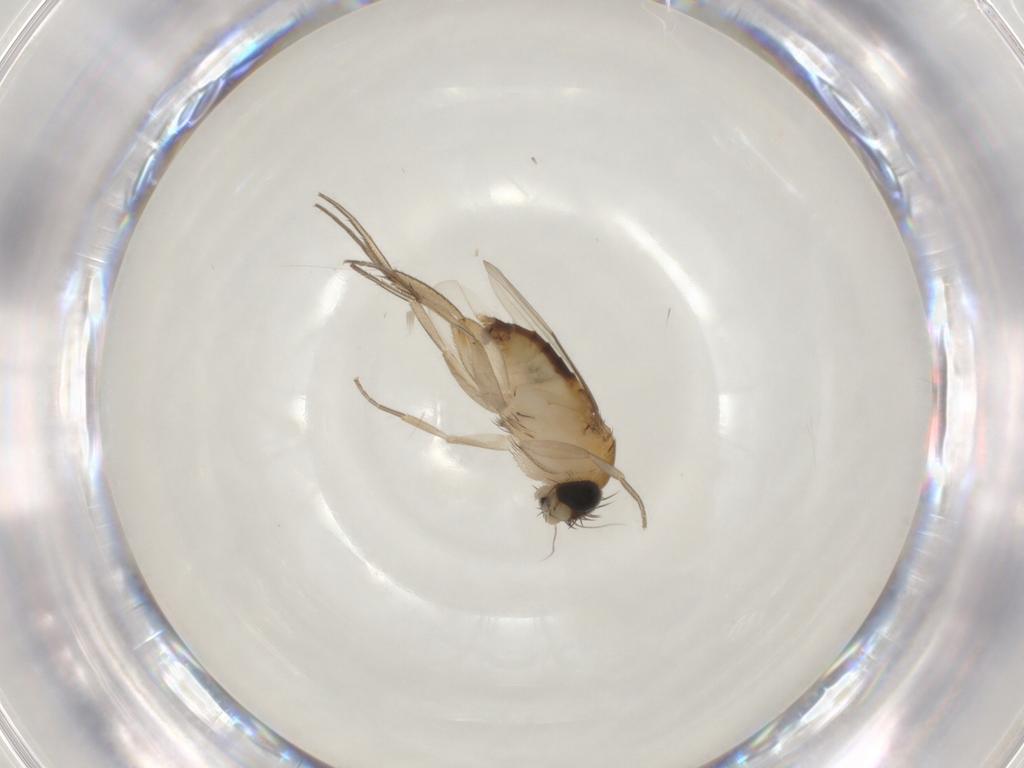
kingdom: Animalia
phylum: Arthropoda
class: Insecta
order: Diptera
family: Phoridae
